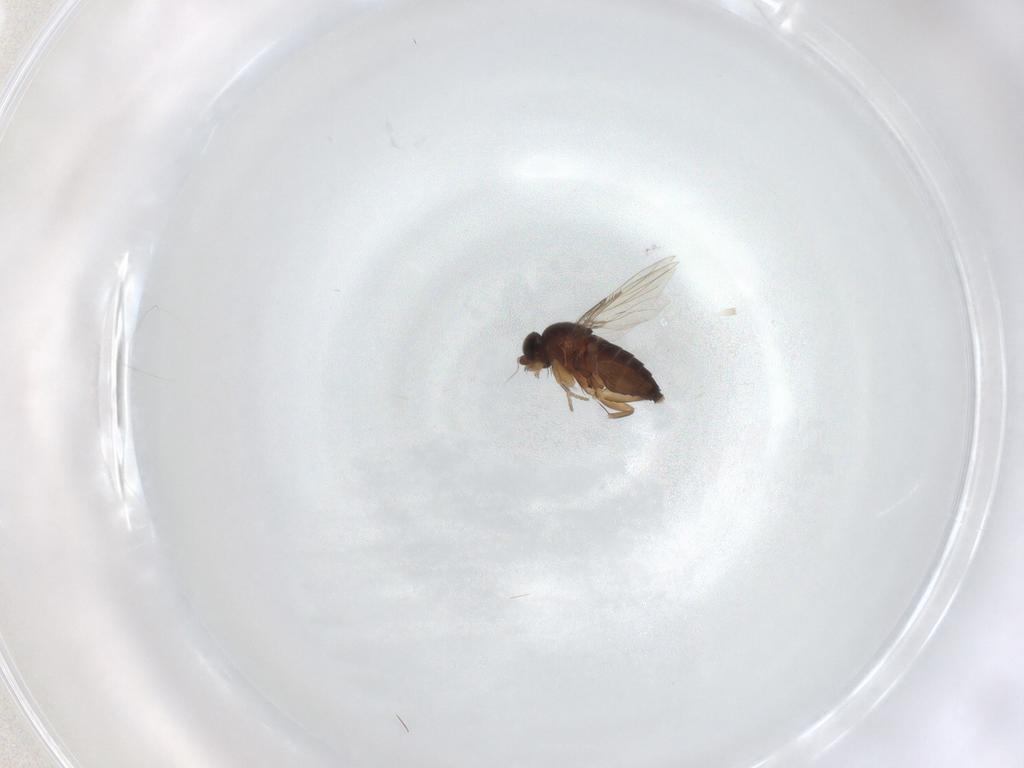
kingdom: Animalia
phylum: Arthropoda
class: Insecta
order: Diptera
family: Phoridae
